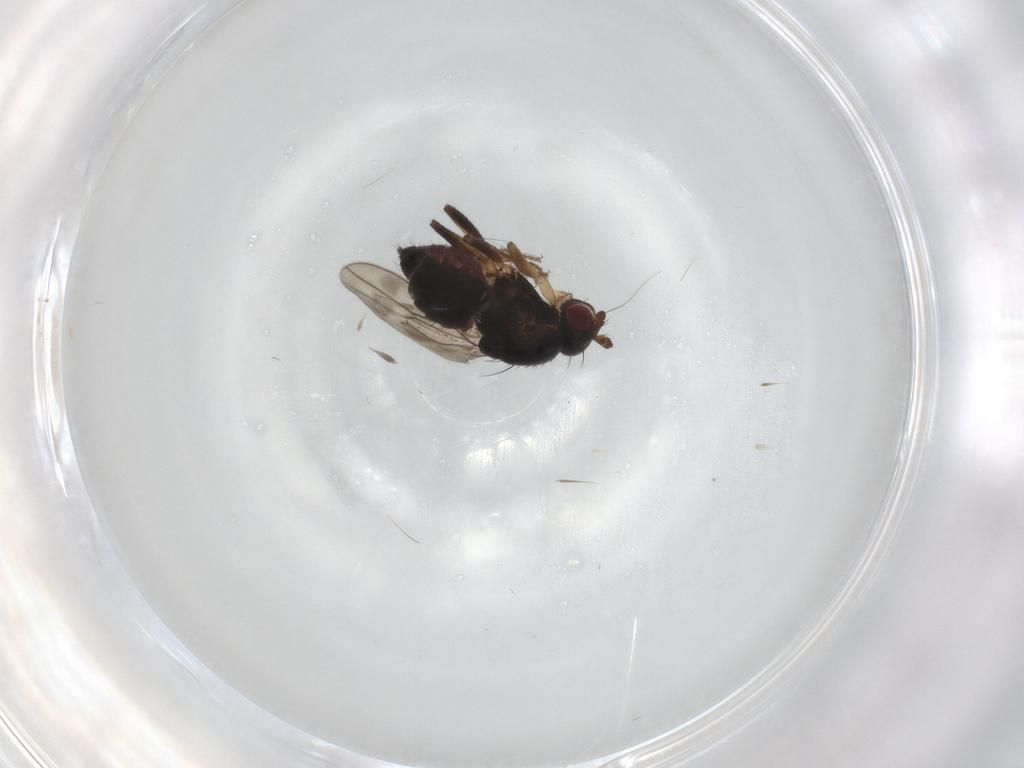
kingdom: Animalia
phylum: Arthropoda
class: Insecta
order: Diptera
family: Sphaeroceridae
